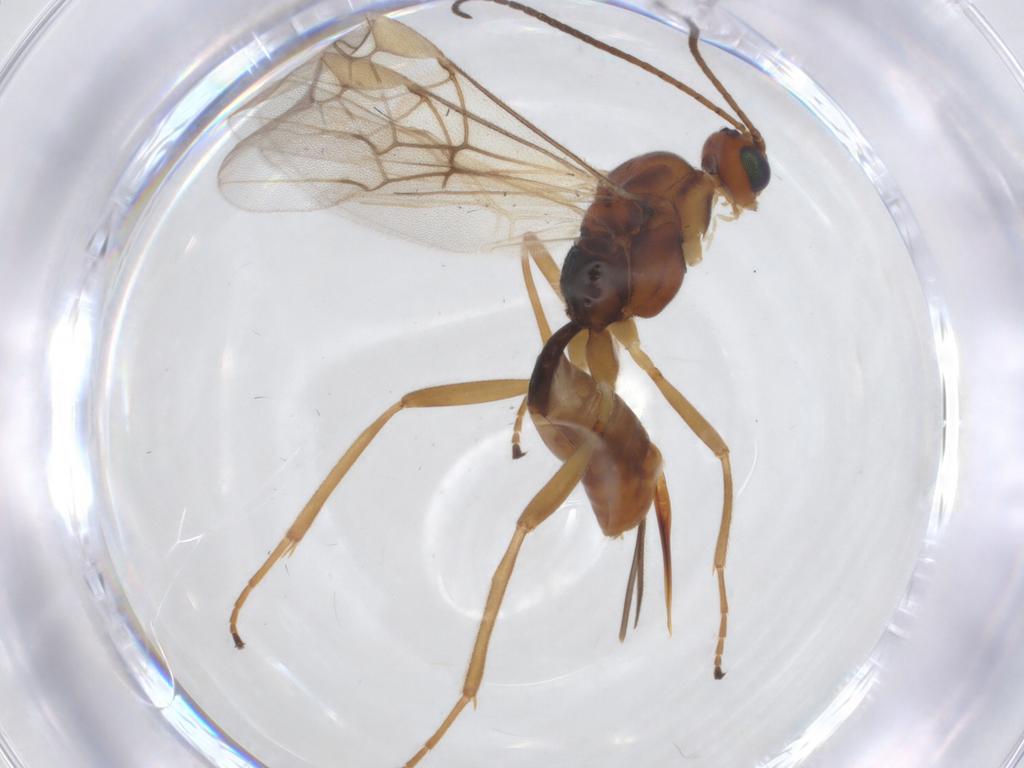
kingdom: Animalia
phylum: Arthropoda
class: Insecta
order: Hymenoptera
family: Braconidae
